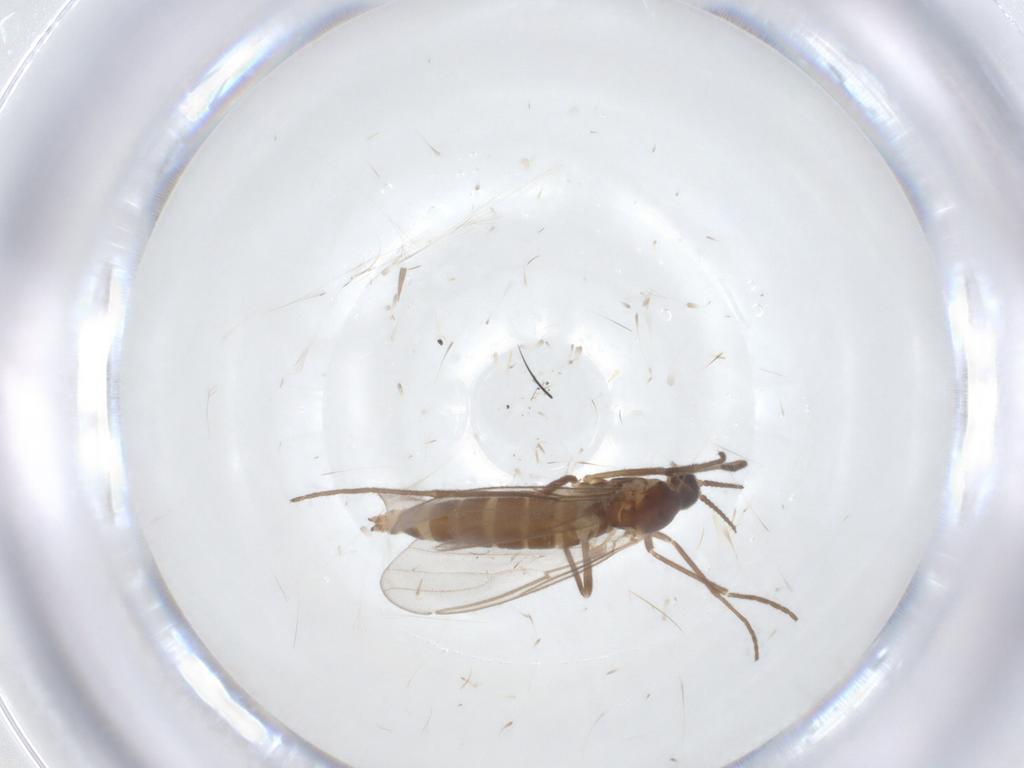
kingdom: Animalia
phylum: Arthropoda
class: Insecta
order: Diptera
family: Cecidomyiidae
